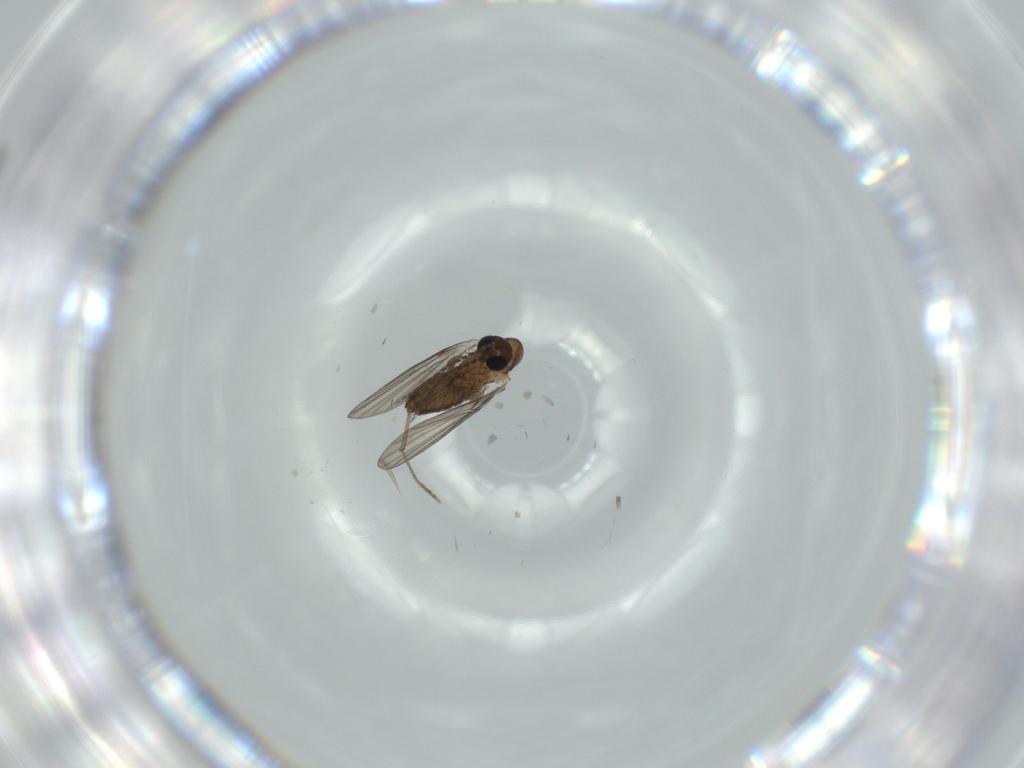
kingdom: Animalia
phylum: Arthropoda
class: Insecta
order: Diptera
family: Psychodidae
